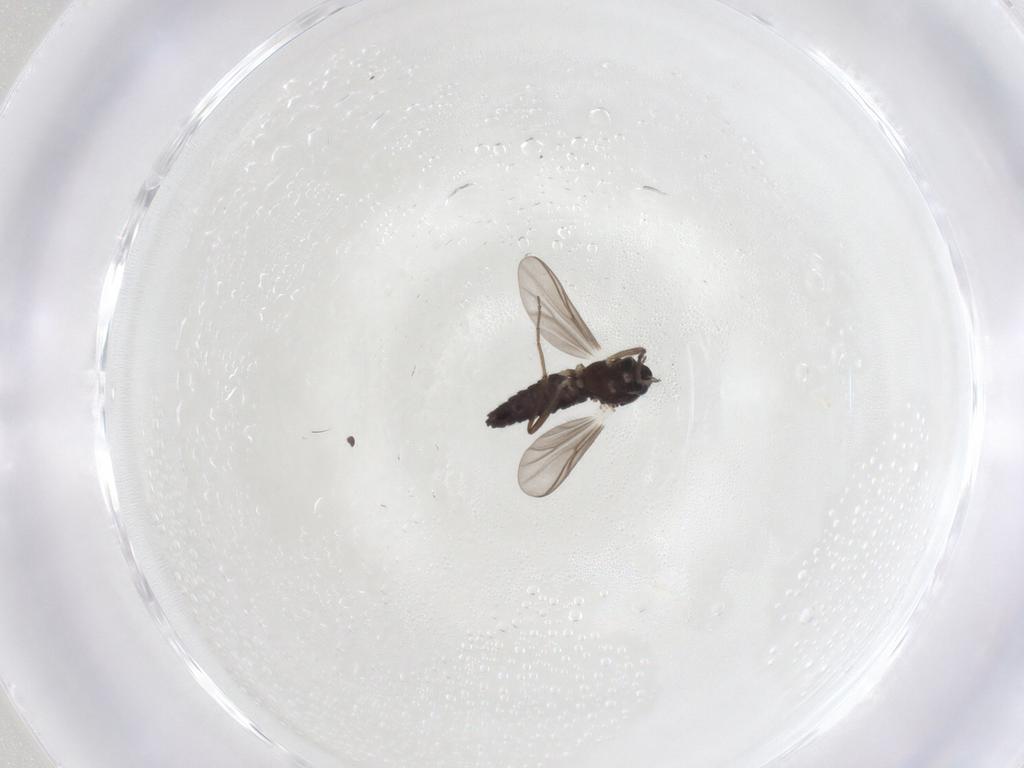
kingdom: Animalia
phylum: Arthropoda
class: Insecta
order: Diptera
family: Chironomidae
